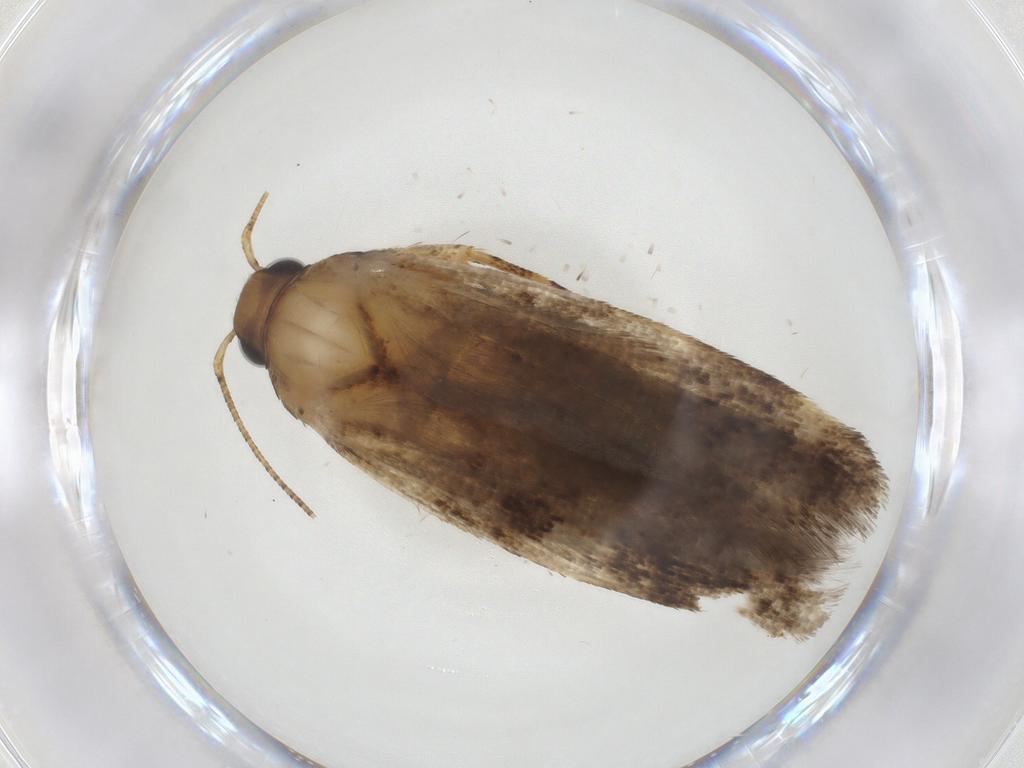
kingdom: Animalia
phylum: Arthropoda
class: Insecta
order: Lepidoptera
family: Gelechiidae
